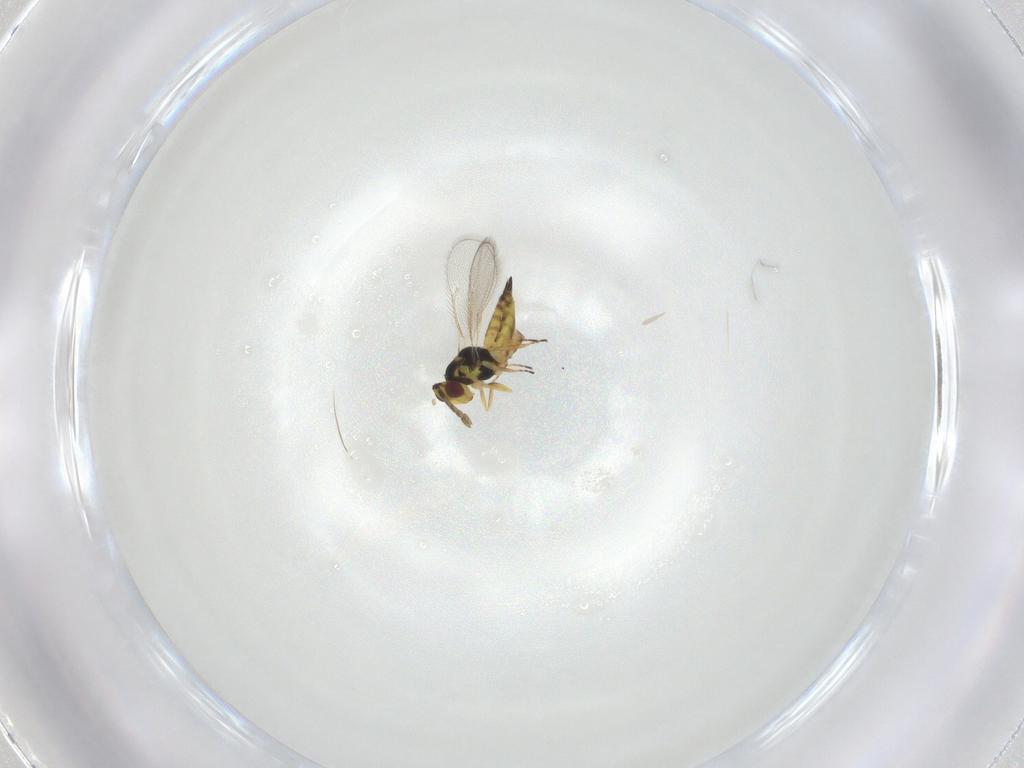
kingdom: Animalia
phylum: Arthropoda
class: Insecta
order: Hymenoptera
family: Eulophidae
